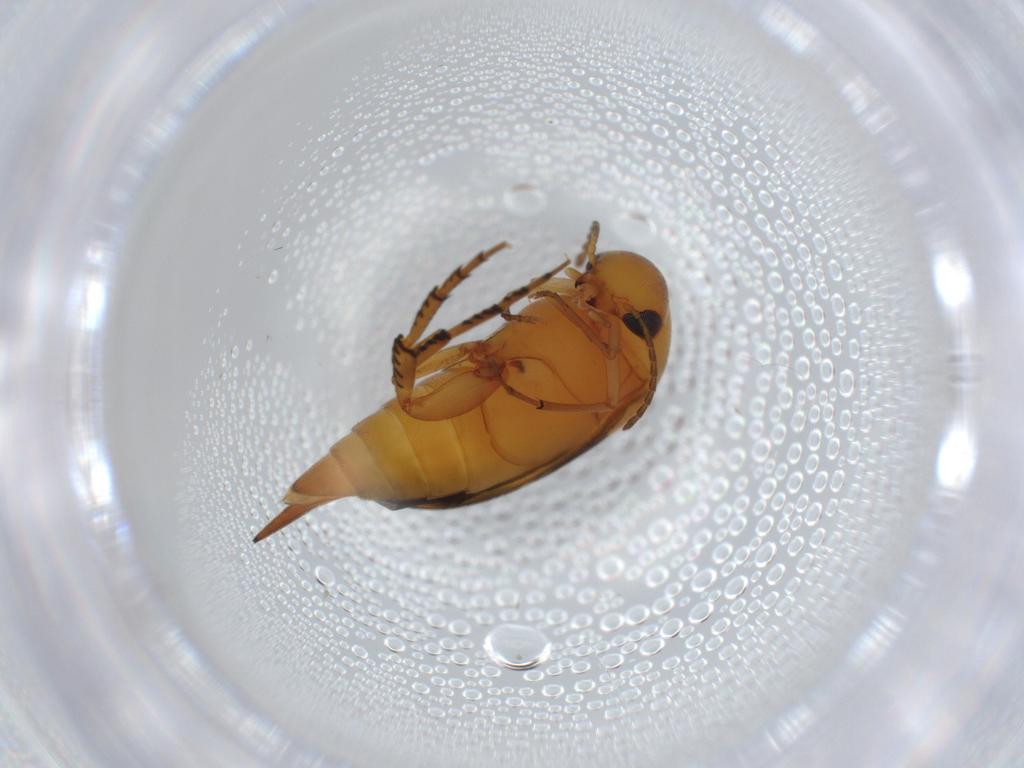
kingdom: Animalia
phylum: Arthropoda
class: Insecta
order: Coleoptera
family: Mordellidae
